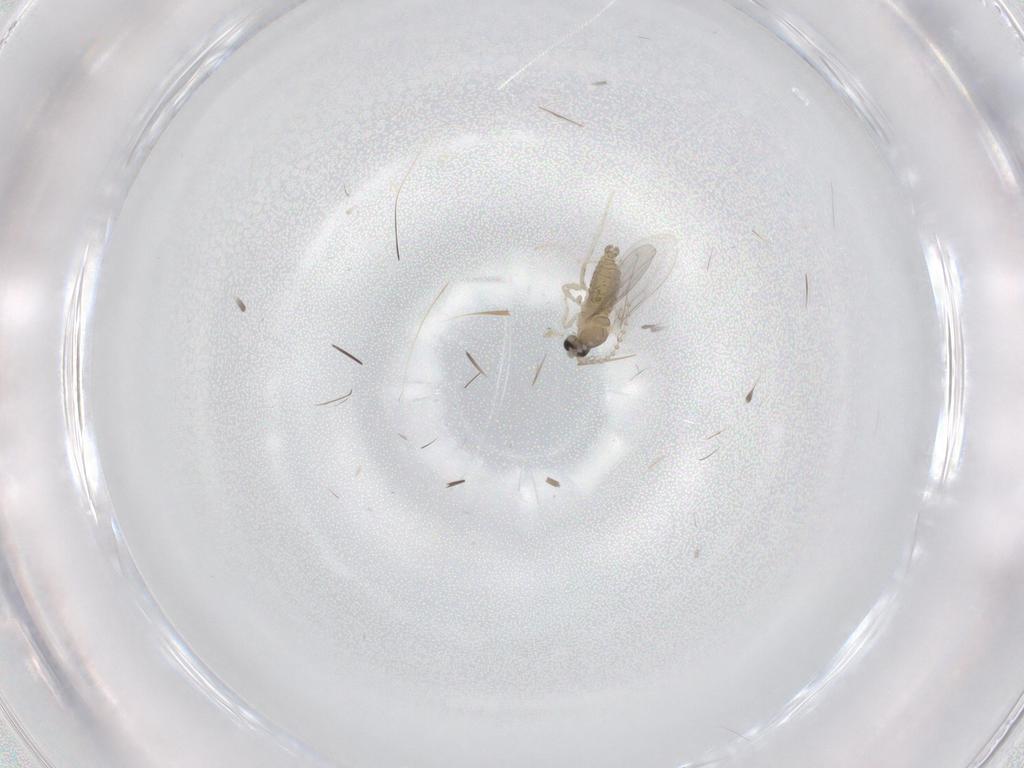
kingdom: Animalia
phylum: Arthropoda
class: Insecta
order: Diptera
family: Cecidomyiidae
